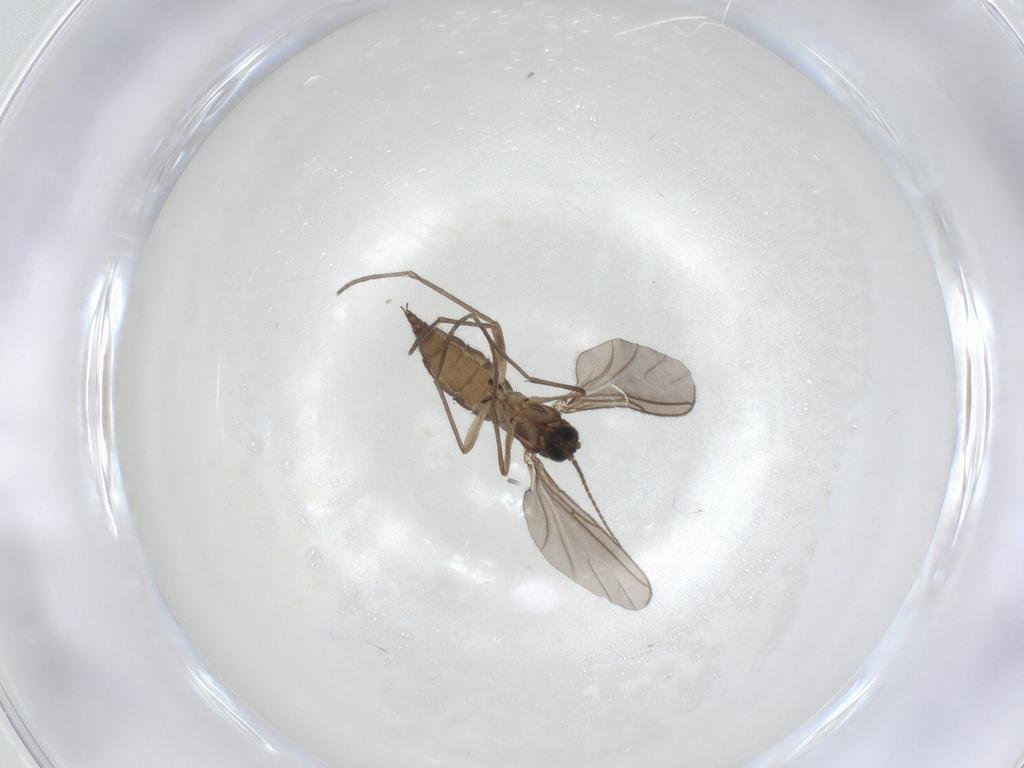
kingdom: Animalia
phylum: Arthropoda
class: Insecta
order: Diptera
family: Sciaridae
